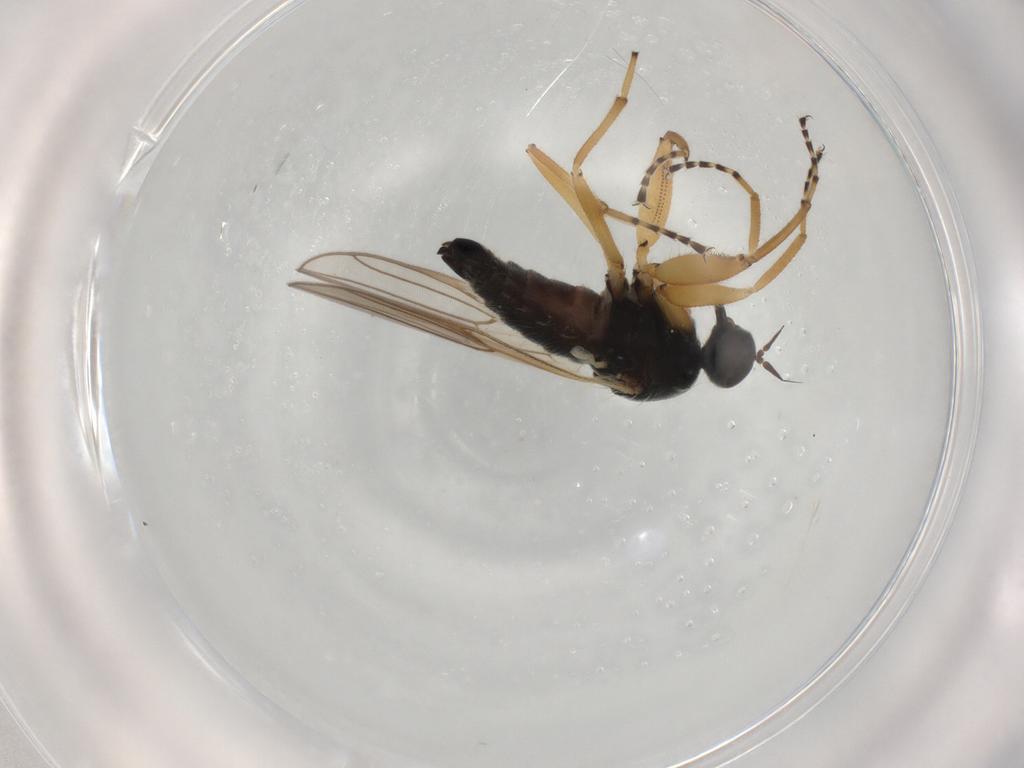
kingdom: Animalia
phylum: Arthropoda
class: Insecta
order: Diptera
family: Hybotidae
